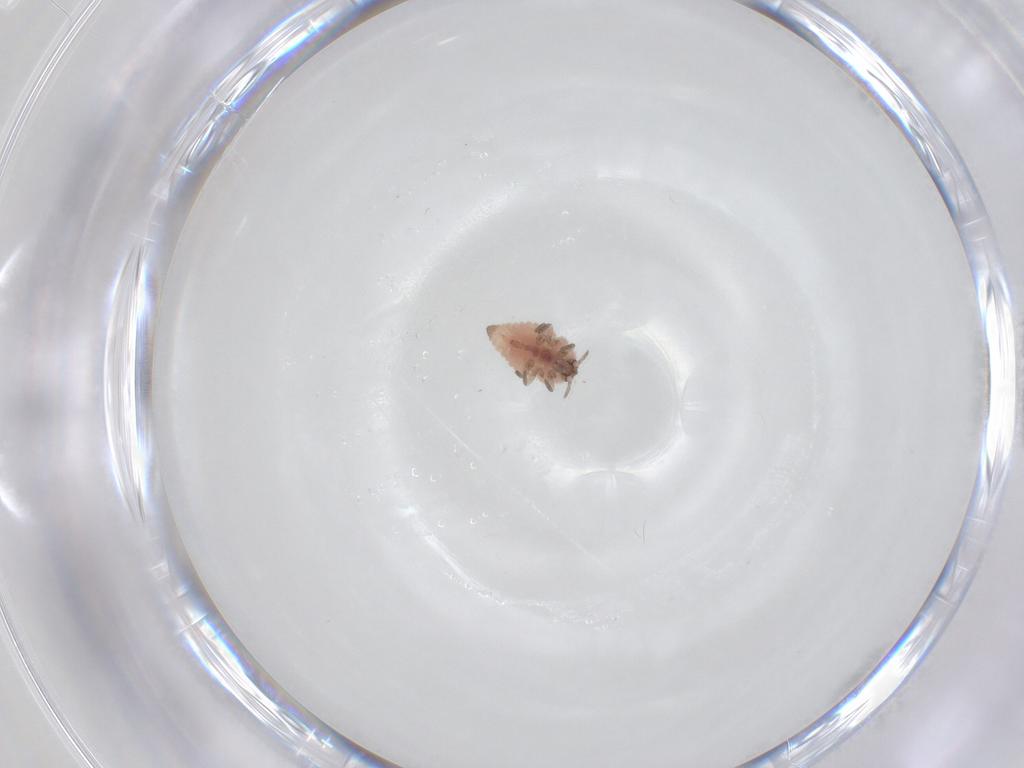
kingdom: Animalia
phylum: Arthropoda
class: Insecta
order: Neuroptera
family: Coniopterygidae
